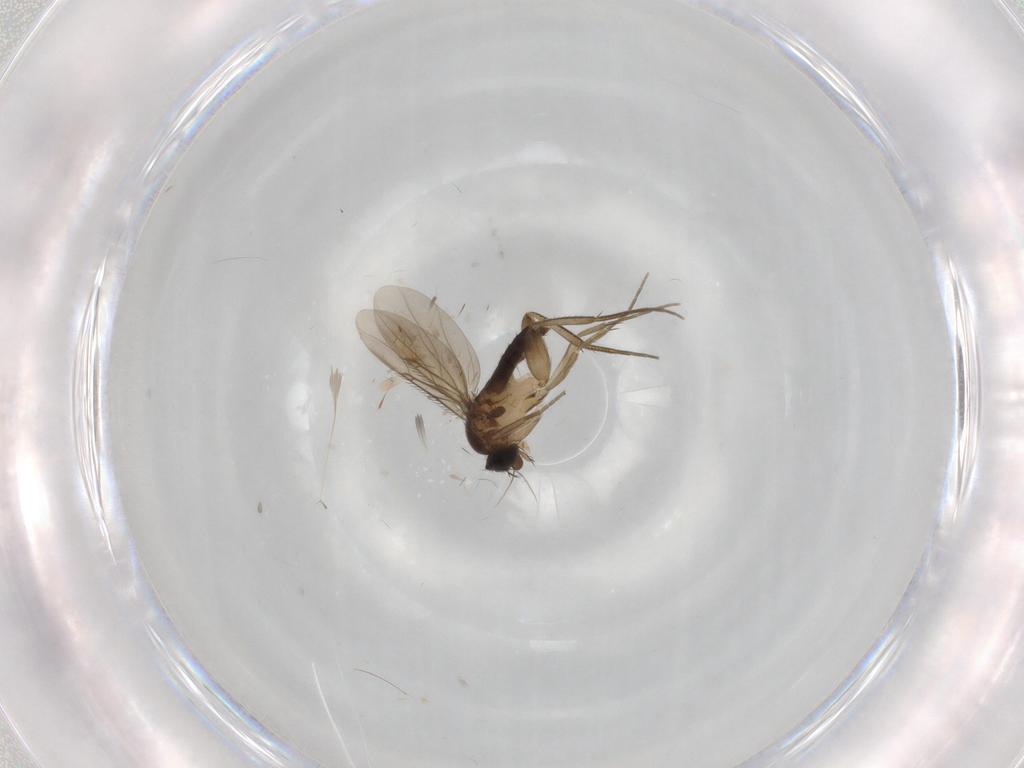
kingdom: Animalia
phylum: Arthropoda
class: Insecta
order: Diptera
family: Phoridae
